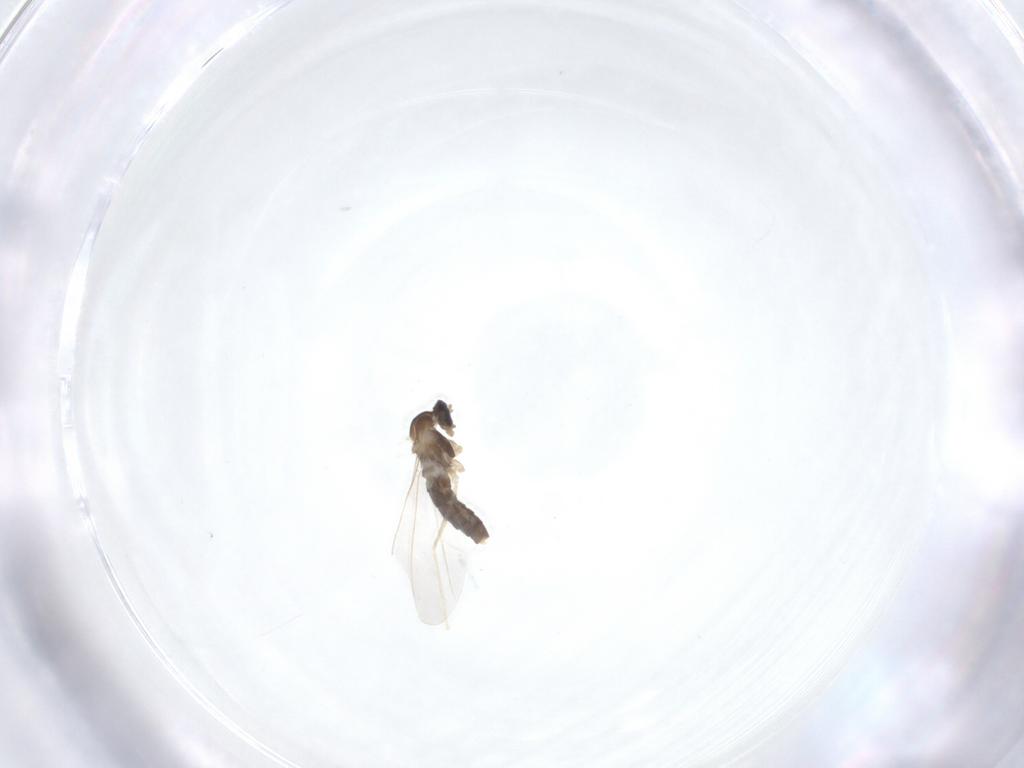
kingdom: Animalia
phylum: Arthropoda
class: Insecta
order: Diptera
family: Cecidomyiidae
